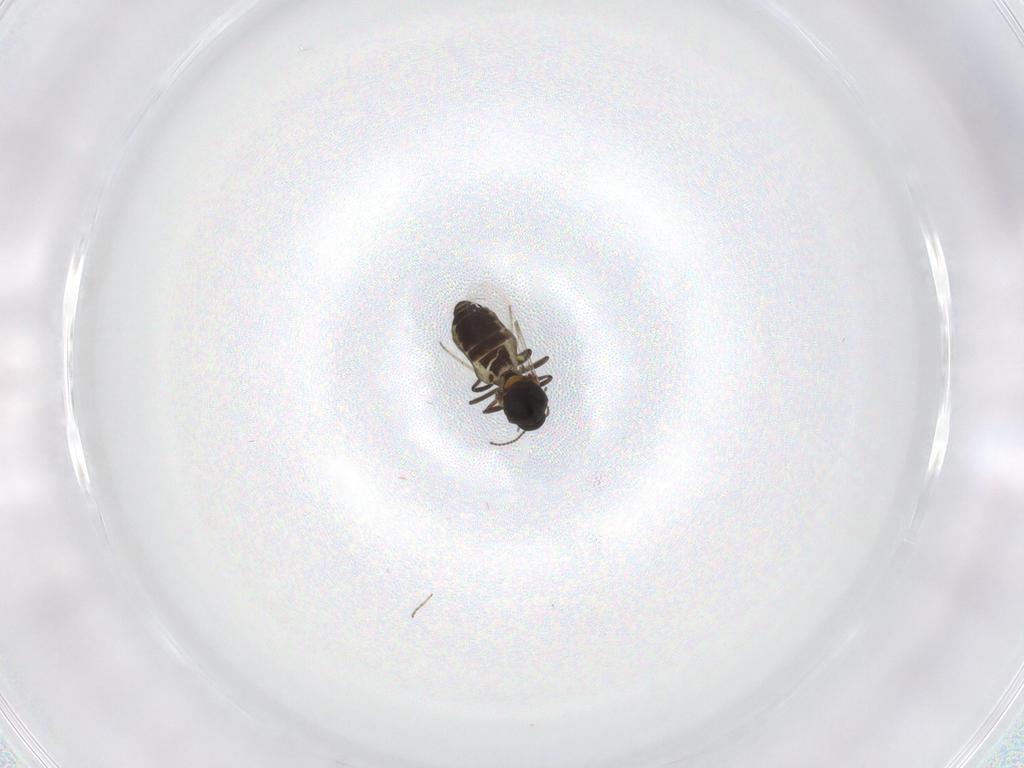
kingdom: Animalia
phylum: Arthropoda
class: Insecta
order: Diptera
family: Ceratopogonidae
